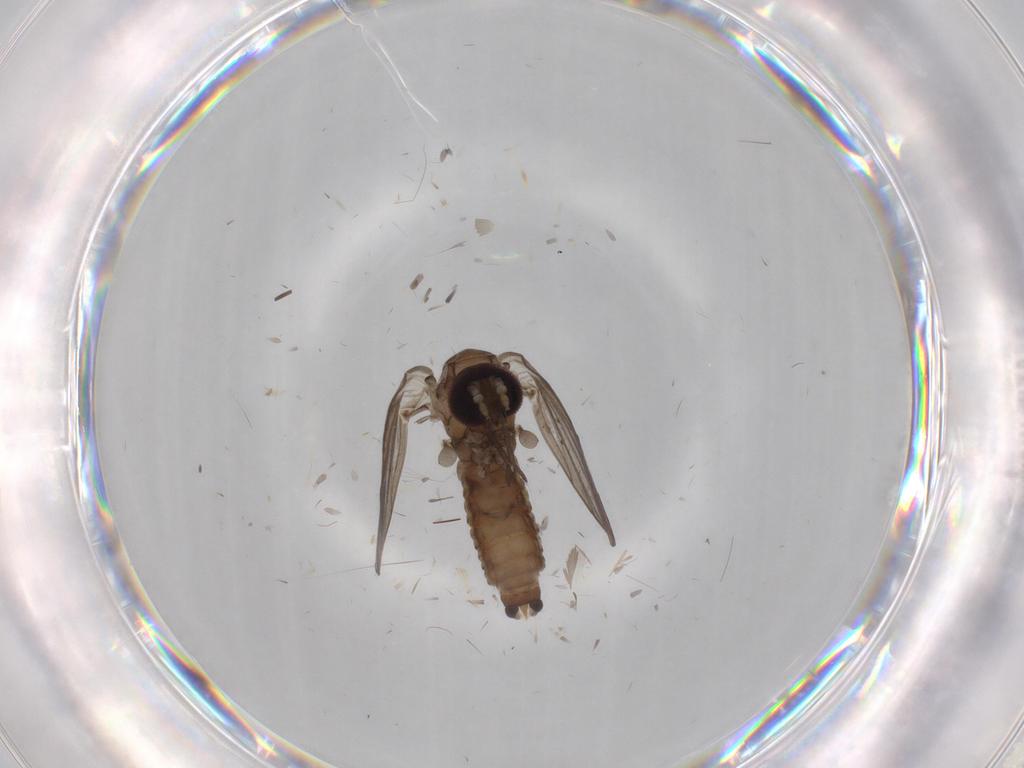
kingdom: Animalia
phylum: Arthropoda
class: Insecta
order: Diptera
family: Cecidomyiidae
